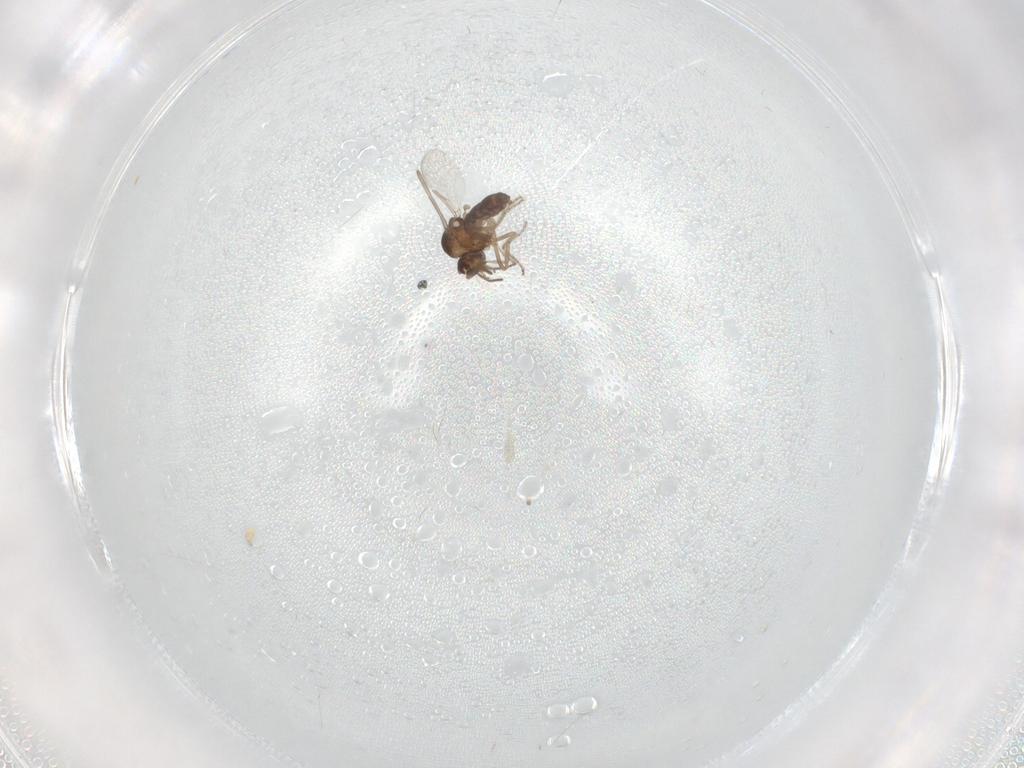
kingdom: Animalia
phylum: Arthropoda
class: Insecta
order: Diptera
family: Ceratopogonidae
